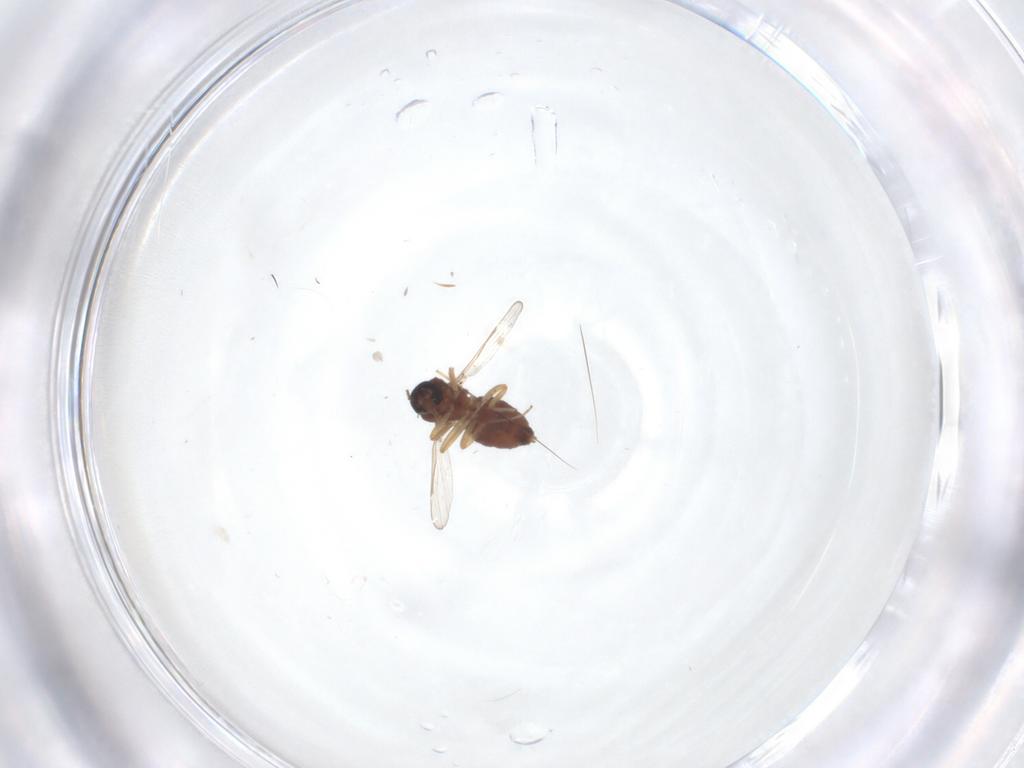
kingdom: Animalia
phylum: Arthropoda
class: Insecta
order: Diptera
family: Ceratopogonidae
